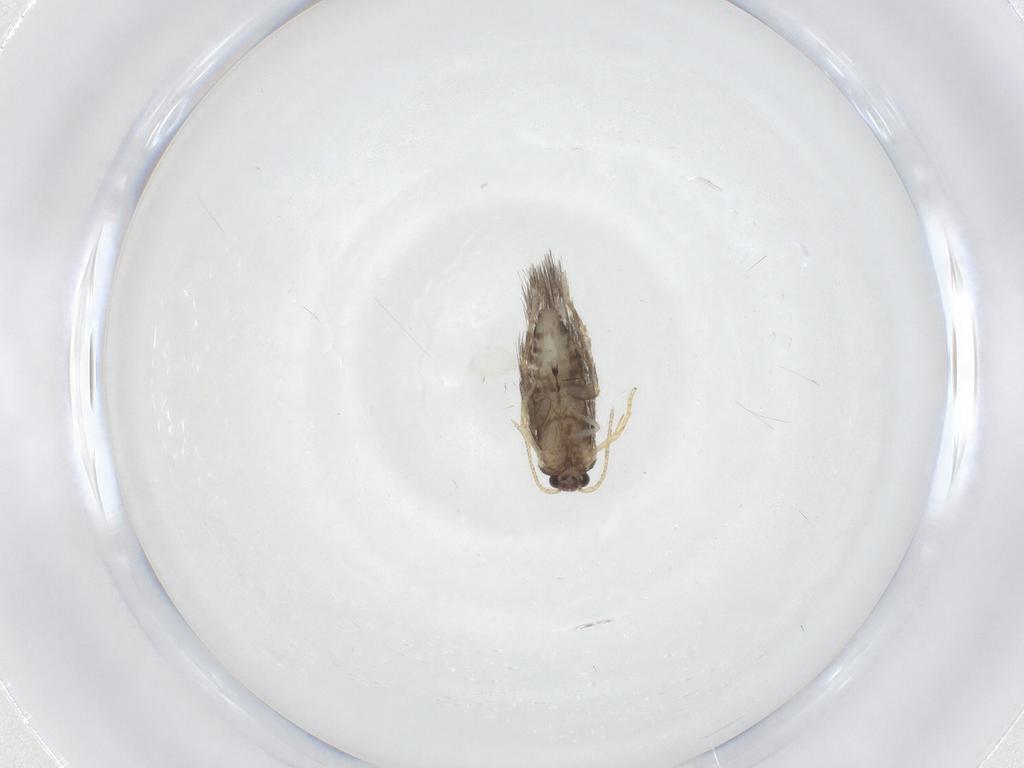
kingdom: Animalia
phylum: Arthropoda
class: Insecta
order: Lepidoptera
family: Nepticulidae
